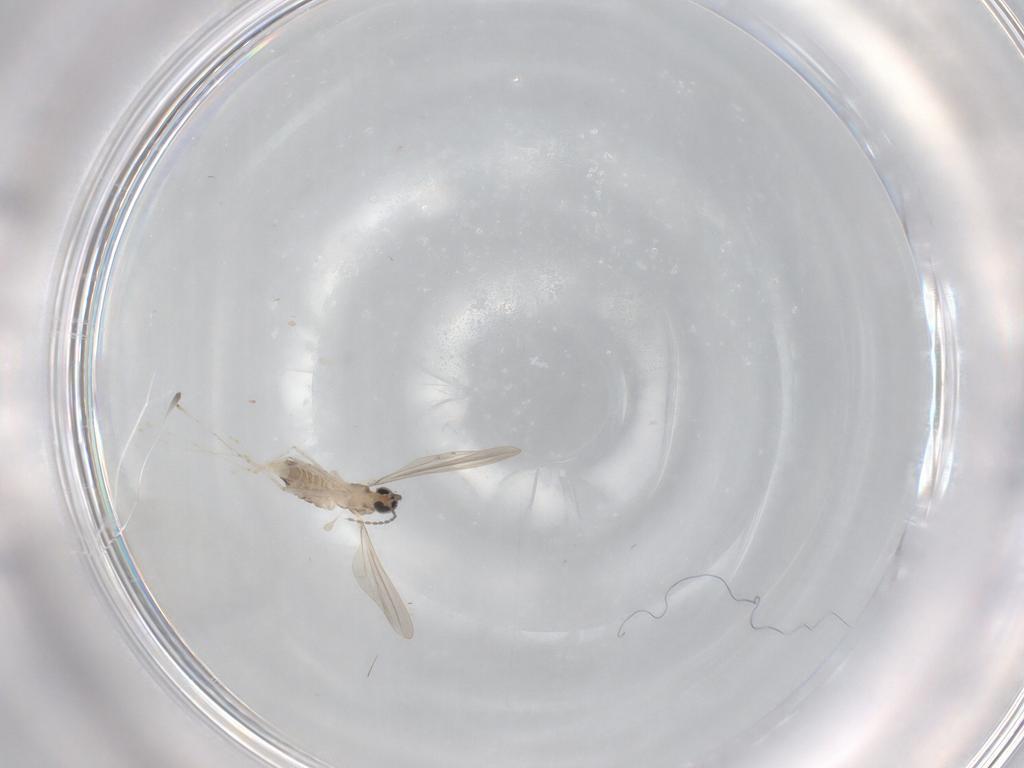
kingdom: Animalia
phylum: Arthropoda
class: Insecta
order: Diptera
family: Cecidomyiidae
